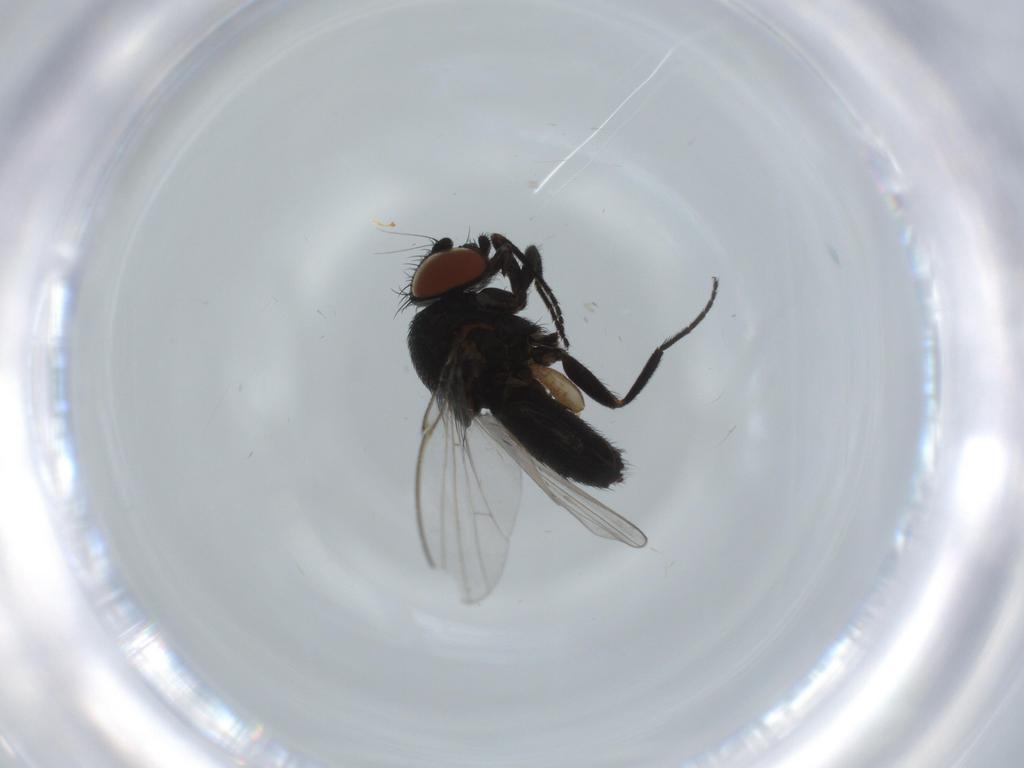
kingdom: Animalia
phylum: Arthropoda
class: Insecta
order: Diptera
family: Milichiidae
